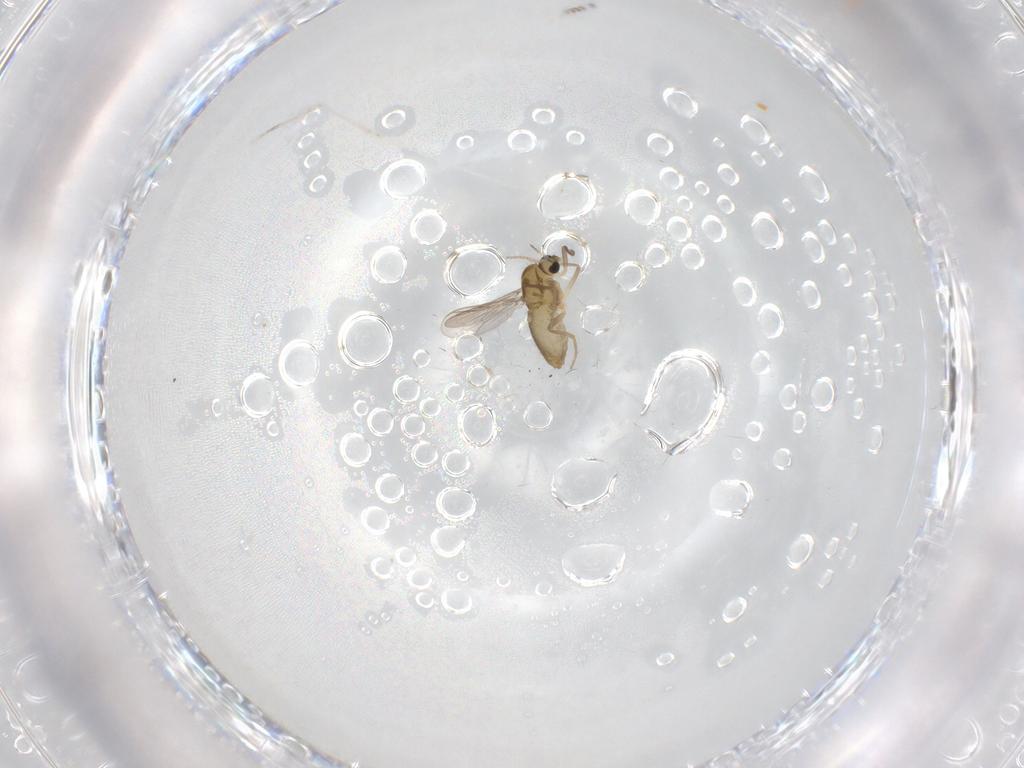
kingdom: Animalia
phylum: Arthropoda
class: Insecta
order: Diptera
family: Chironomidae
